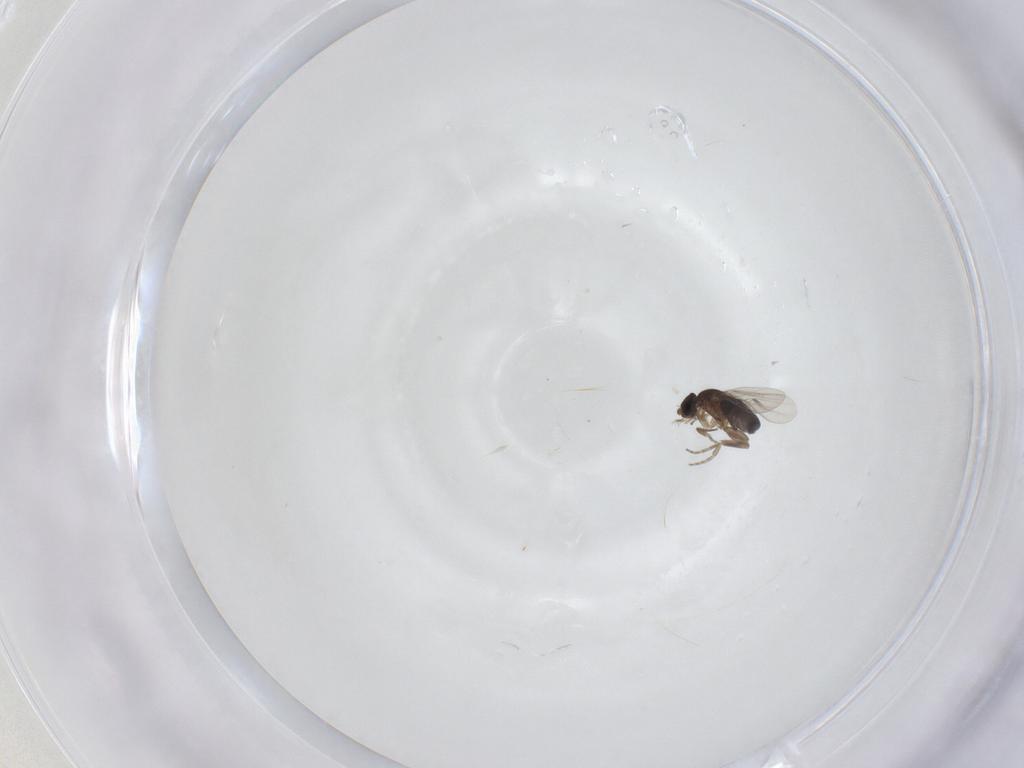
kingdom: Animalia
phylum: Arthropoda
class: Insecta
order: Diptera
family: Phoridae
